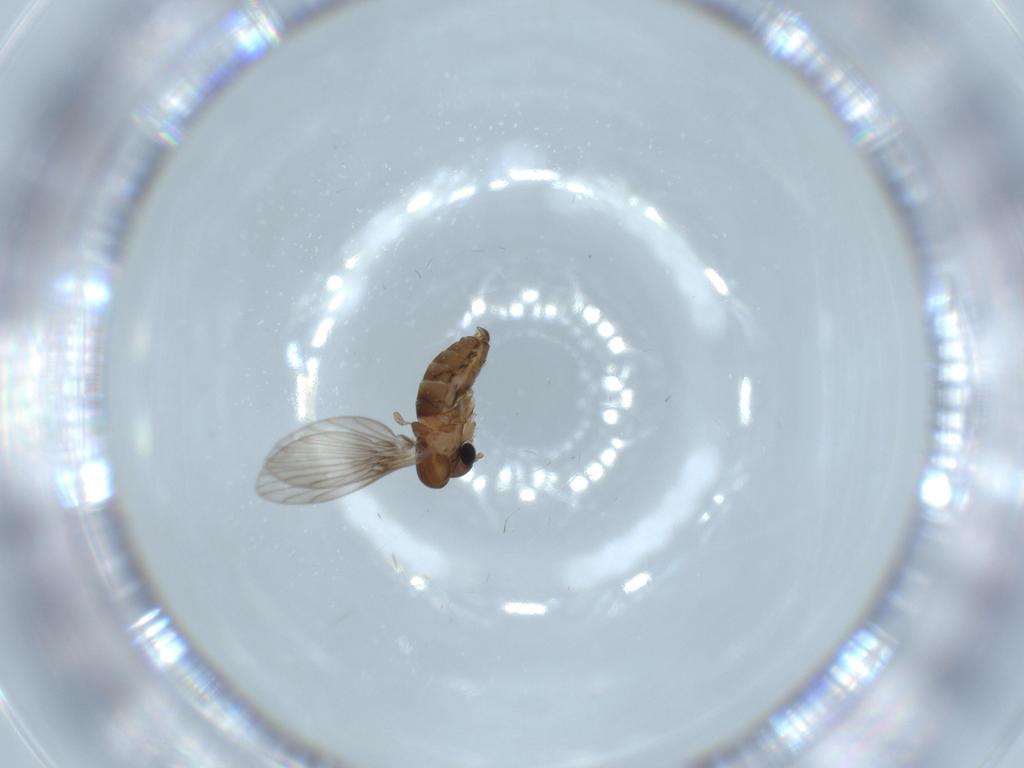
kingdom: Animalia
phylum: Arthropoda
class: Insecta
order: Diptera
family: Psychodidae
